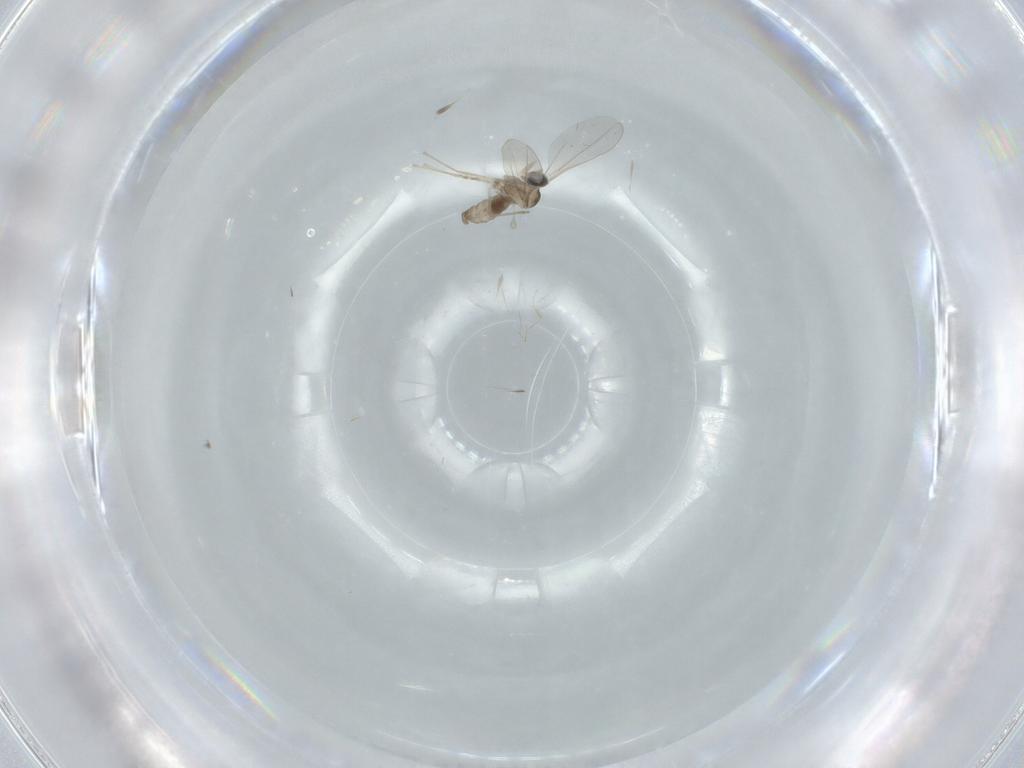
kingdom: Animalia
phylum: Arthropoda
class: Insecta
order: Diptera
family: Cecidomyiidae
